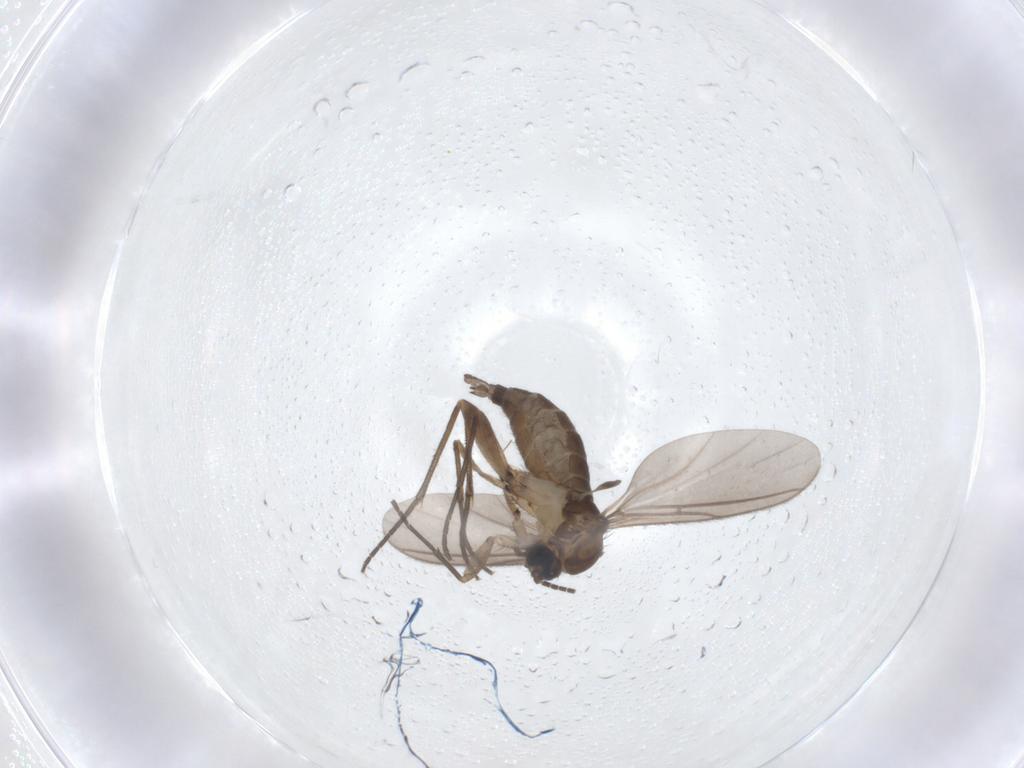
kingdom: Animalia
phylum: Arthropoda
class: Insecta
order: Diptera
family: Sciaridae
